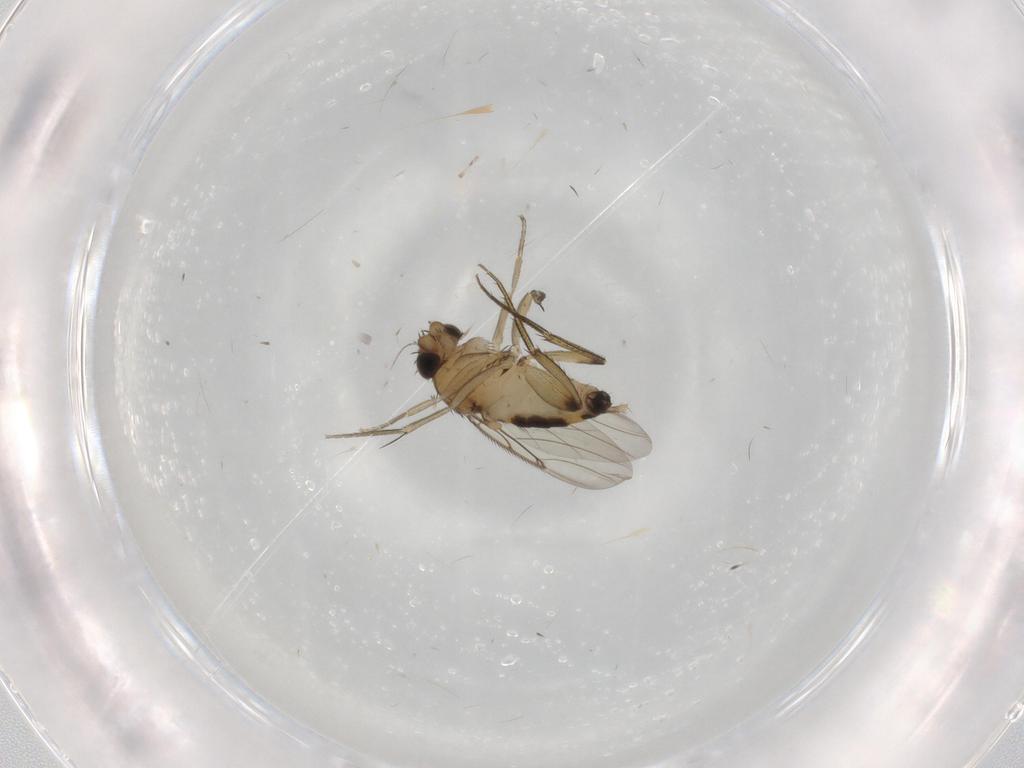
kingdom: Animalia
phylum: Arthropoda
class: Insecta
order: Diptera
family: Phoridae
